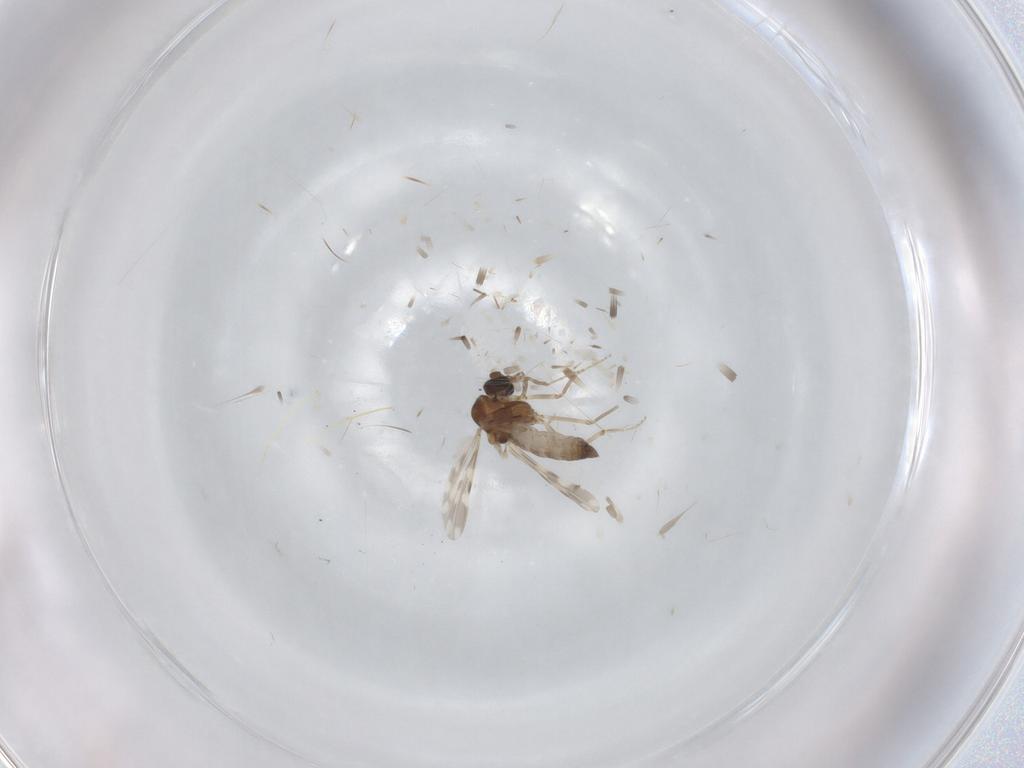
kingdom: Animalia
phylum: Arthropoda
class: Insecta
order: Diptera
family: Ceratopogonidae
